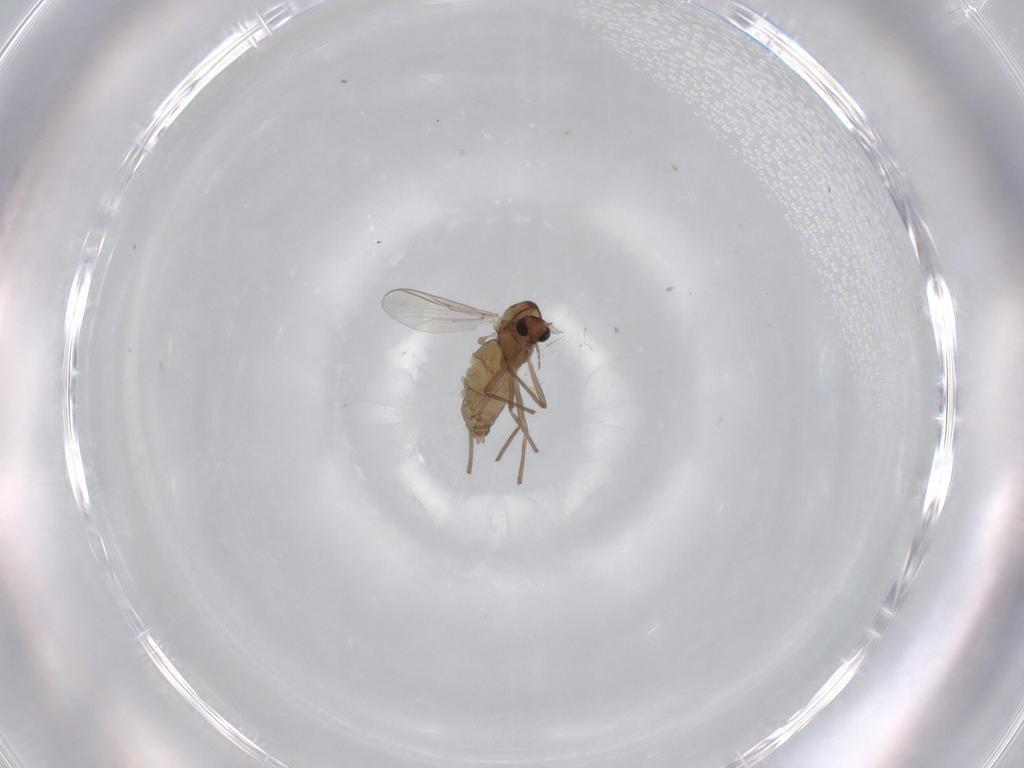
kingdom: Animalia
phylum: Arthropoda
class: Insecta
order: Diptera
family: Chironomidae
